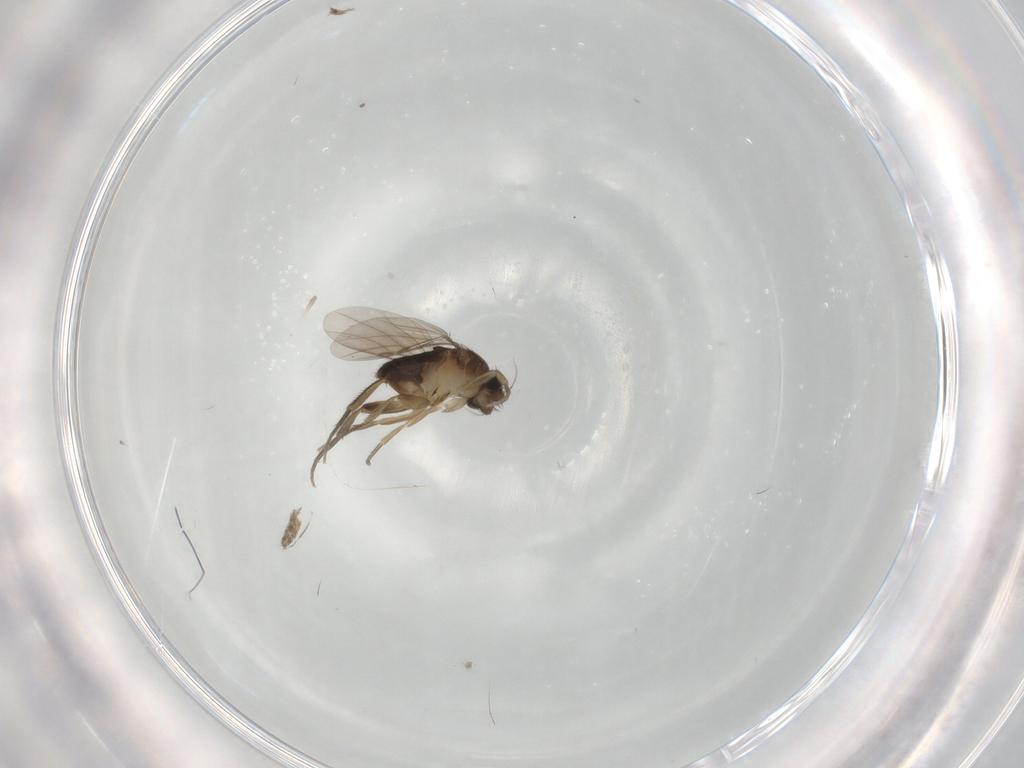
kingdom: Animalia
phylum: Arthropoda
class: Insecta
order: Diptera
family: Phoridae
